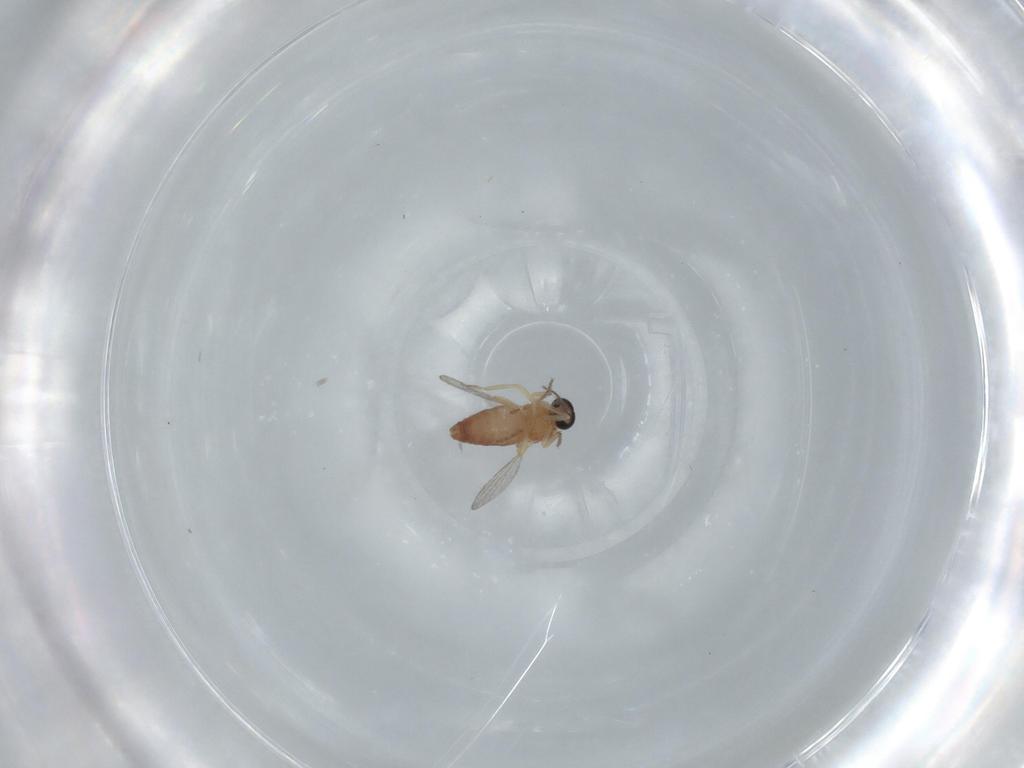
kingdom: Animalia
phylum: Arthropoda
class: Insecta
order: Diptera
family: Ceratopogonidae
